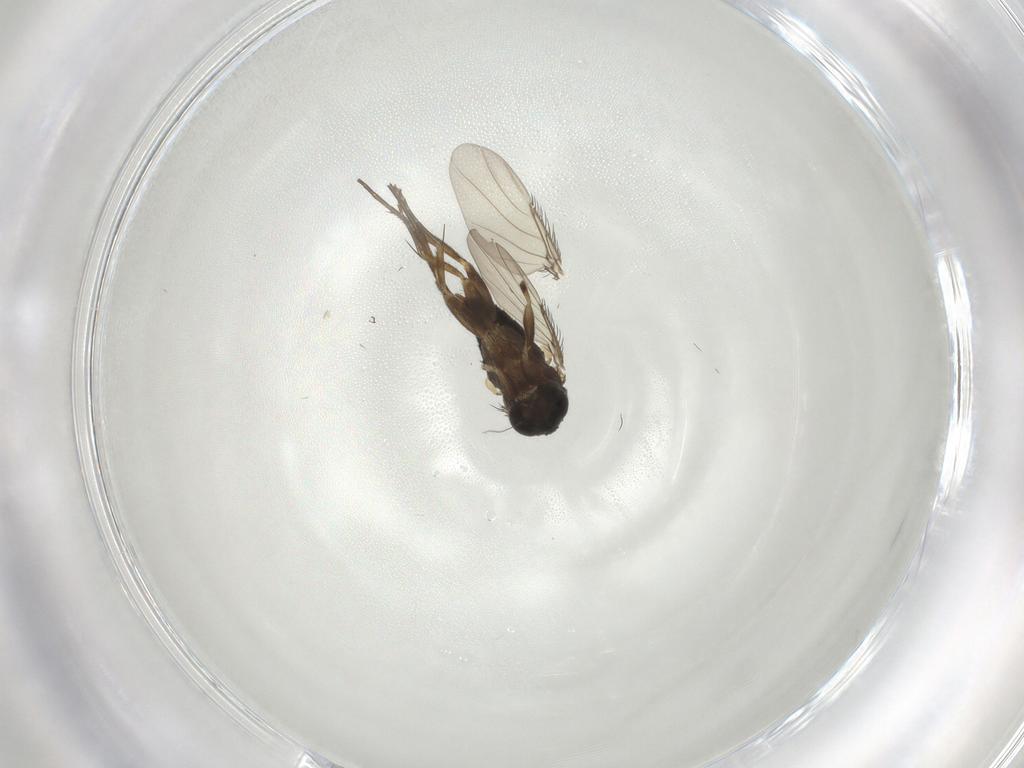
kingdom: Animalia
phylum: Arthropoda
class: Insecta
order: Diptera
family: Phoridae
